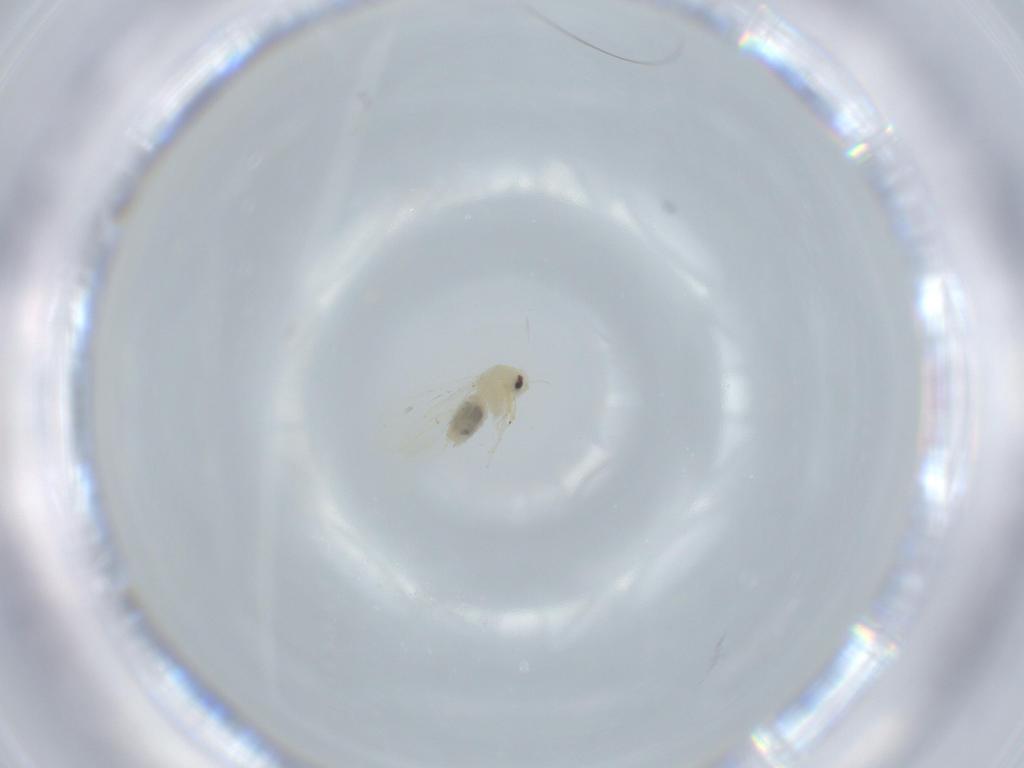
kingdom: Animalia
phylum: Arthropoda
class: Insecta
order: Hemiptera
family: Aleyrodidae
